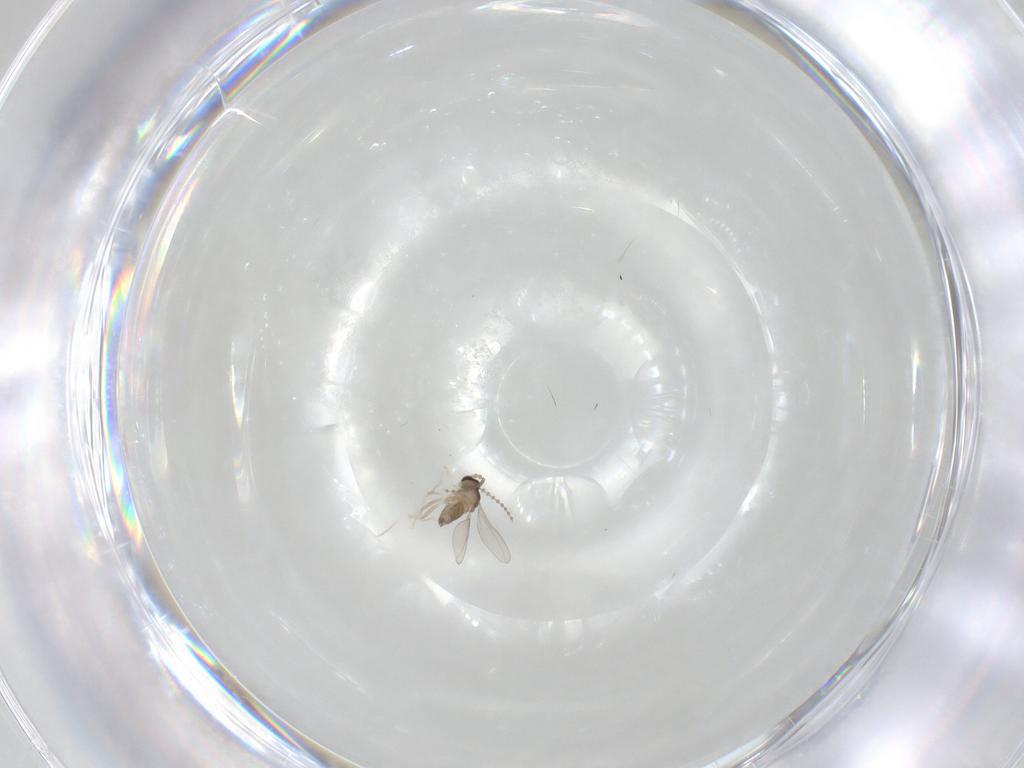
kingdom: Animalia
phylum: Arthropoda
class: Insecta
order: Diptera
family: Cecidomyiidae
